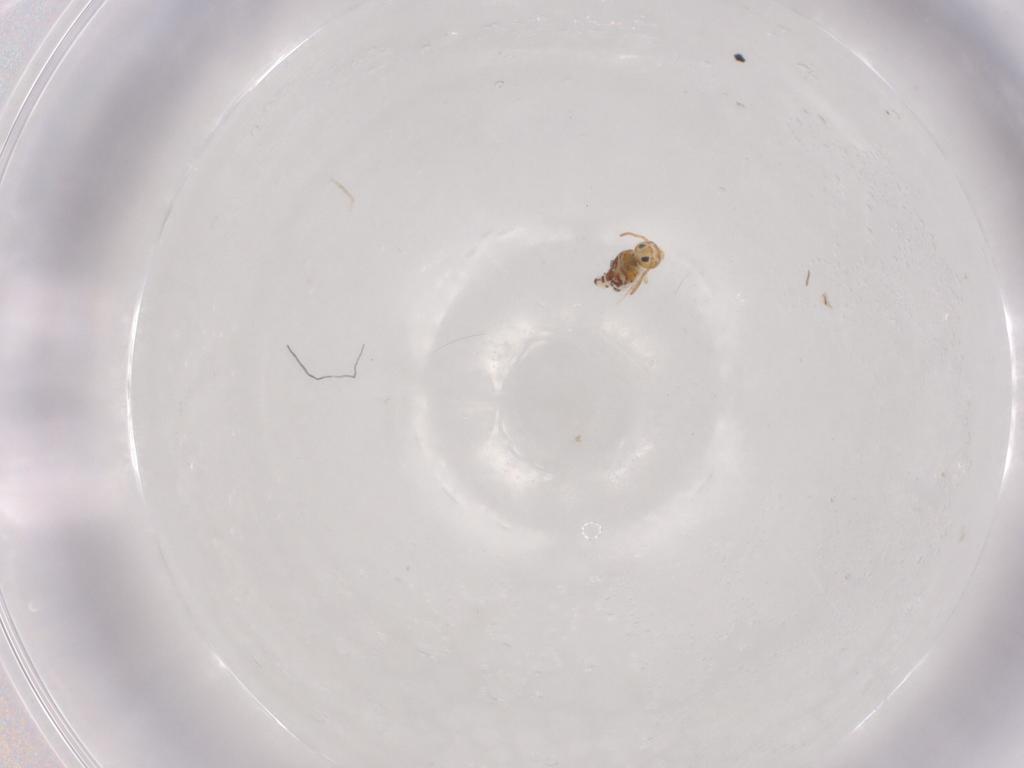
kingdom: Animalia
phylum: Arthropoda
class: Collembola
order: Symphypleona
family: Bourletiellidae
